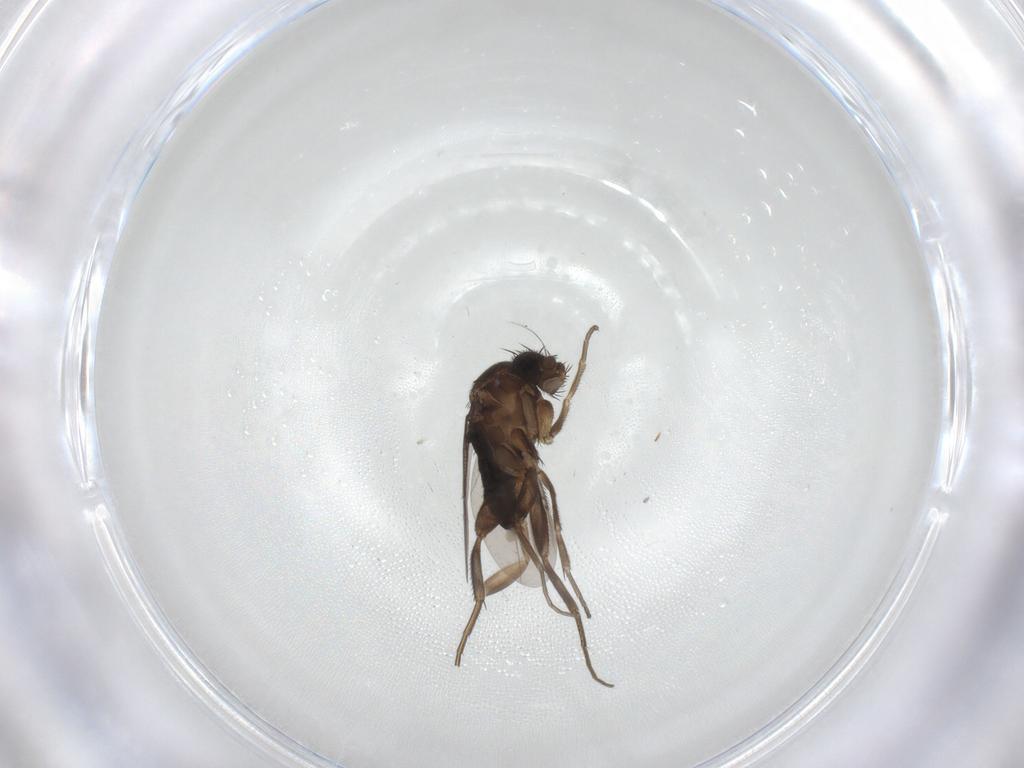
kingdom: Animalia
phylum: Arthropoda
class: Insecta
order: Diptera
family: Phoridae
